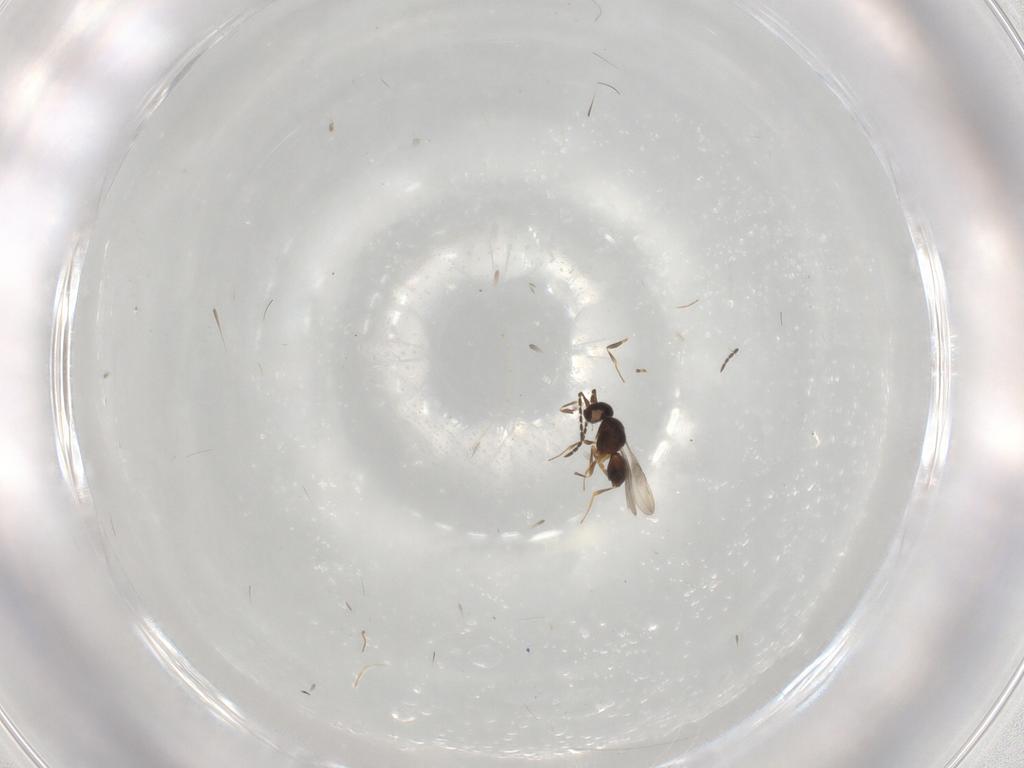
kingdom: Animalia
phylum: Arthropoda
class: Insecta
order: Hymenoptera
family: Ceraphronidae
